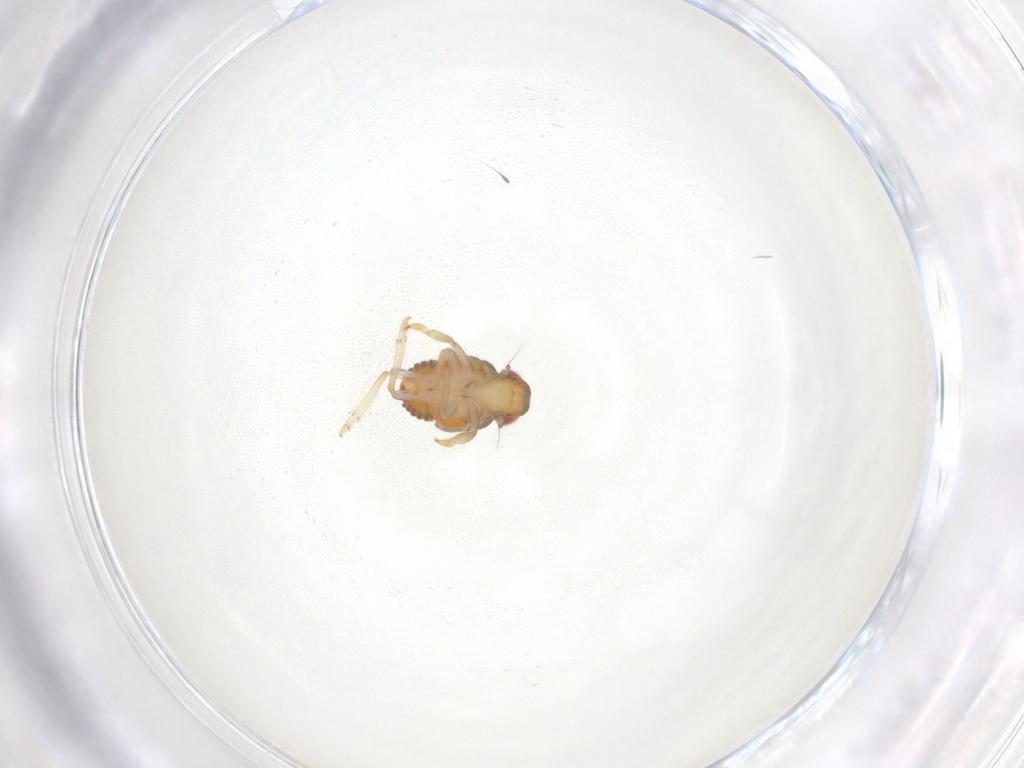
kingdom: Animalia
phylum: Arthropoda
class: Insecta
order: Hemiptera
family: Issidae
